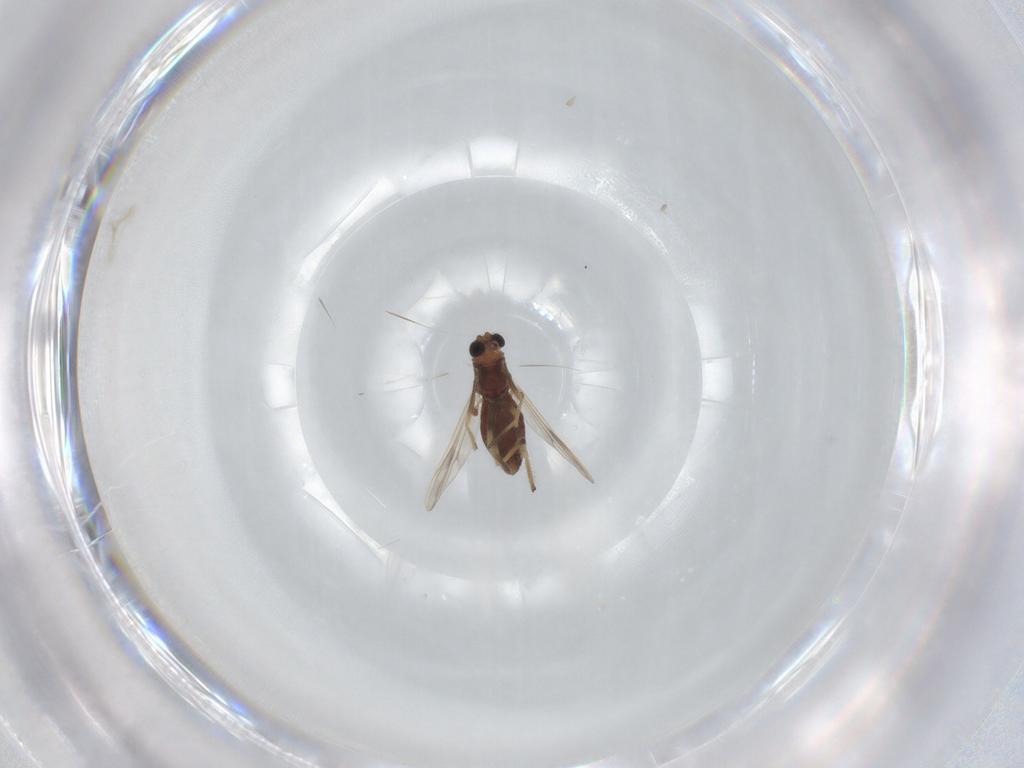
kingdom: Animalia
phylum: Arthropoda
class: Insecta
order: Diptera
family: Chironomidae
